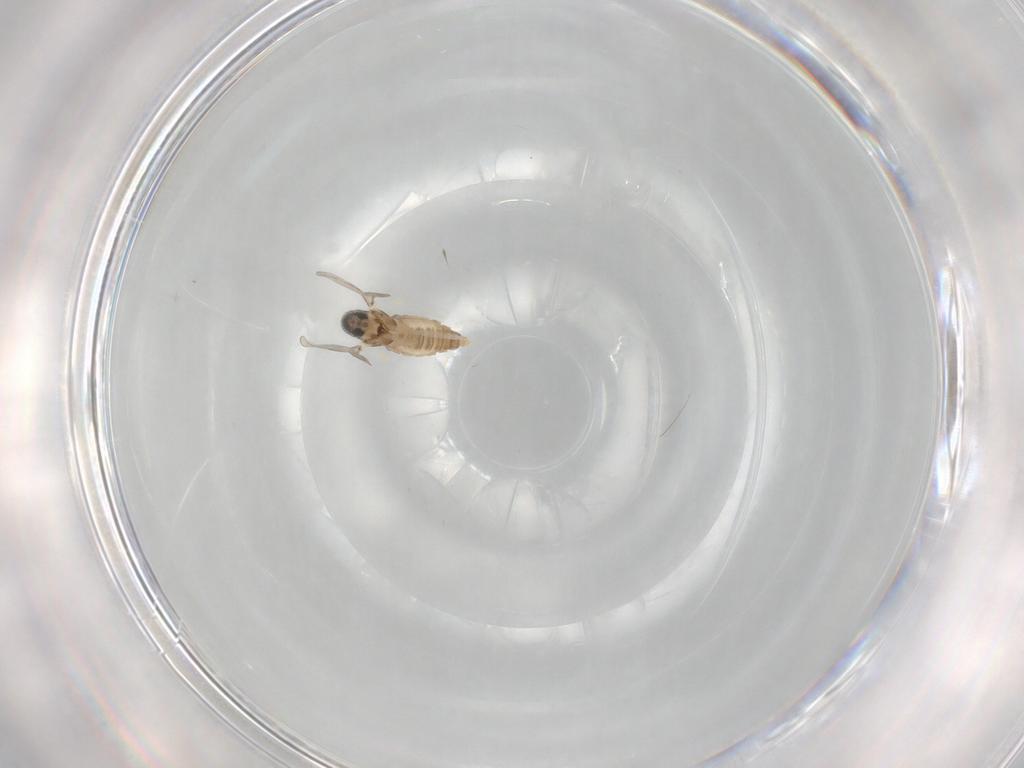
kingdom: Animalia
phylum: Arthropoda
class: Insecta
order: Diptera
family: Cecidomyiidae
